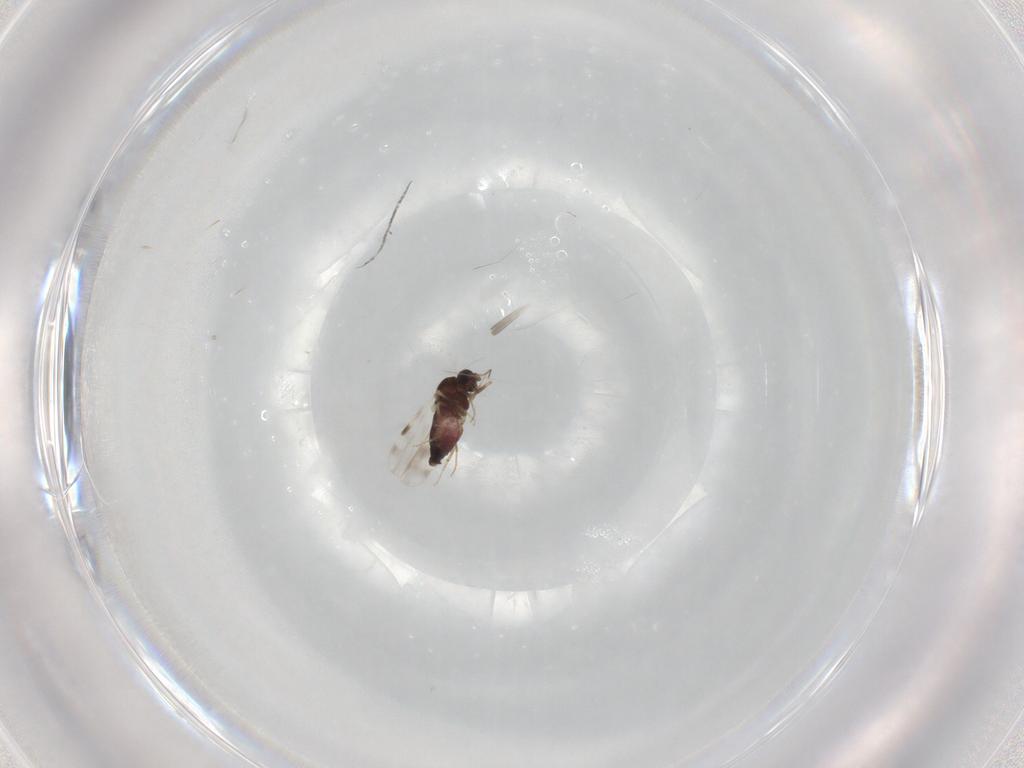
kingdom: Animalia
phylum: Arthropoda
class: Insecta
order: Diptera
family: Ceratopogonidae
